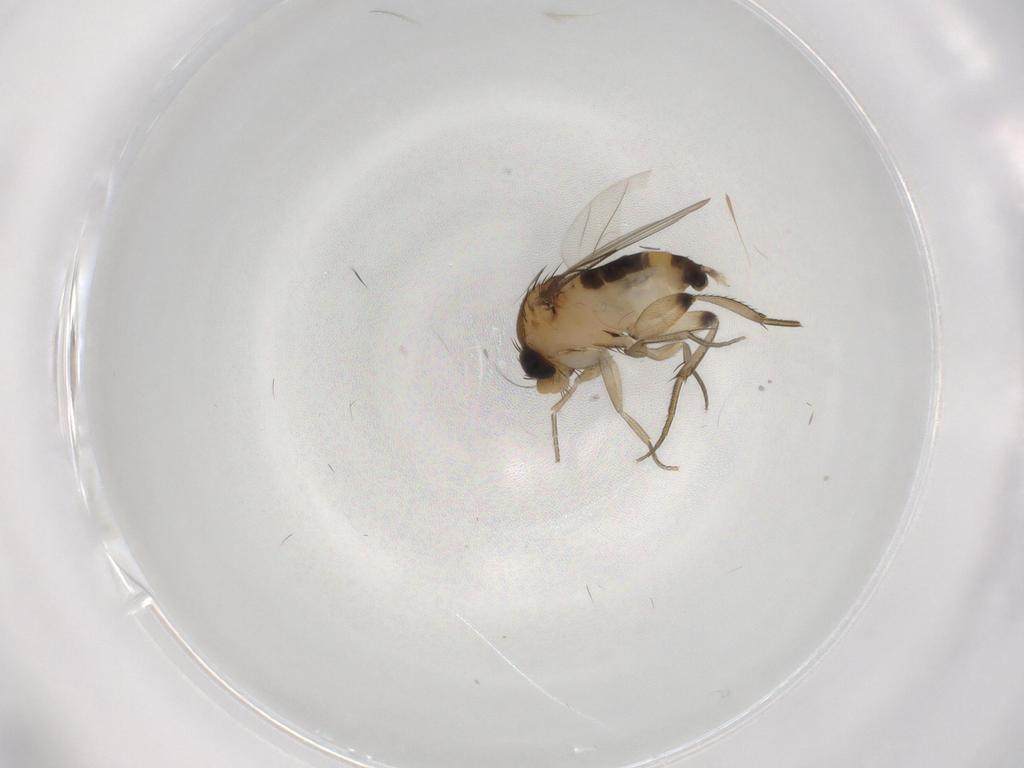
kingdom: Animalia
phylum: Arthropoda
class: Insecta
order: Diptera
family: Phoridae
